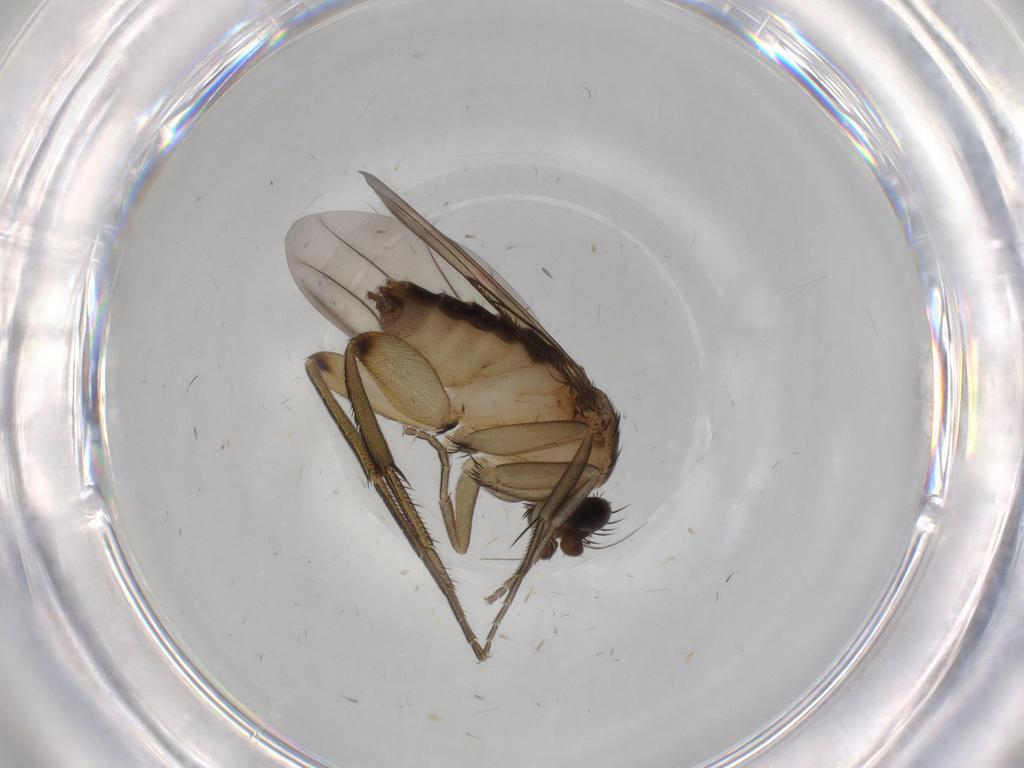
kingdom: Animalia
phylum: Arthropoda
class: Insecta
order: Diptera
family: Phoridae
